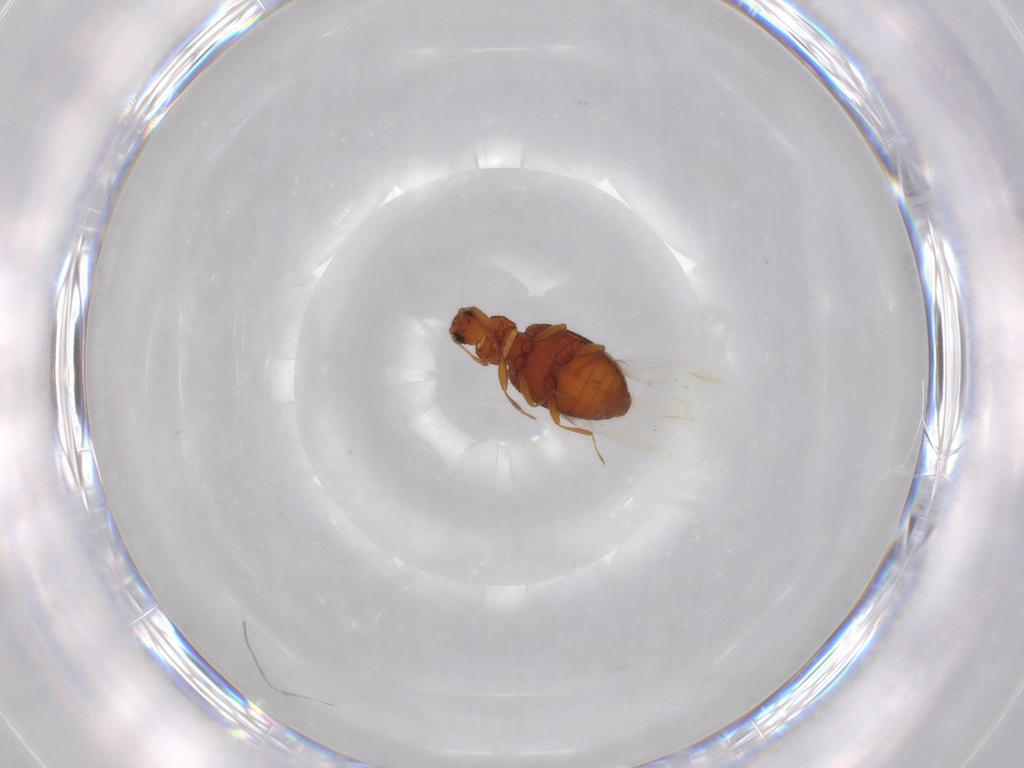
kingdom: Animalia
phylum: Arthropoda
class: Insecta
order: Coleoptera
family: Latridiidae
